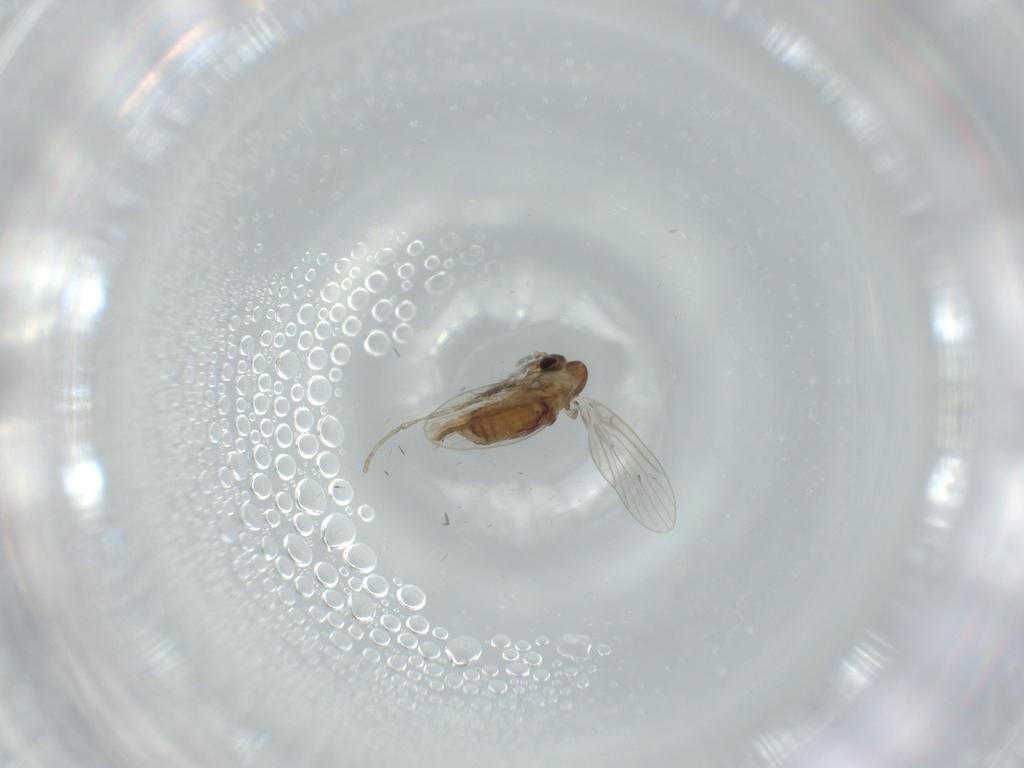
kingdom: Animalia
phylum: Arthropoda
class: Insecta
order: Diptera
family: Psychodidae
